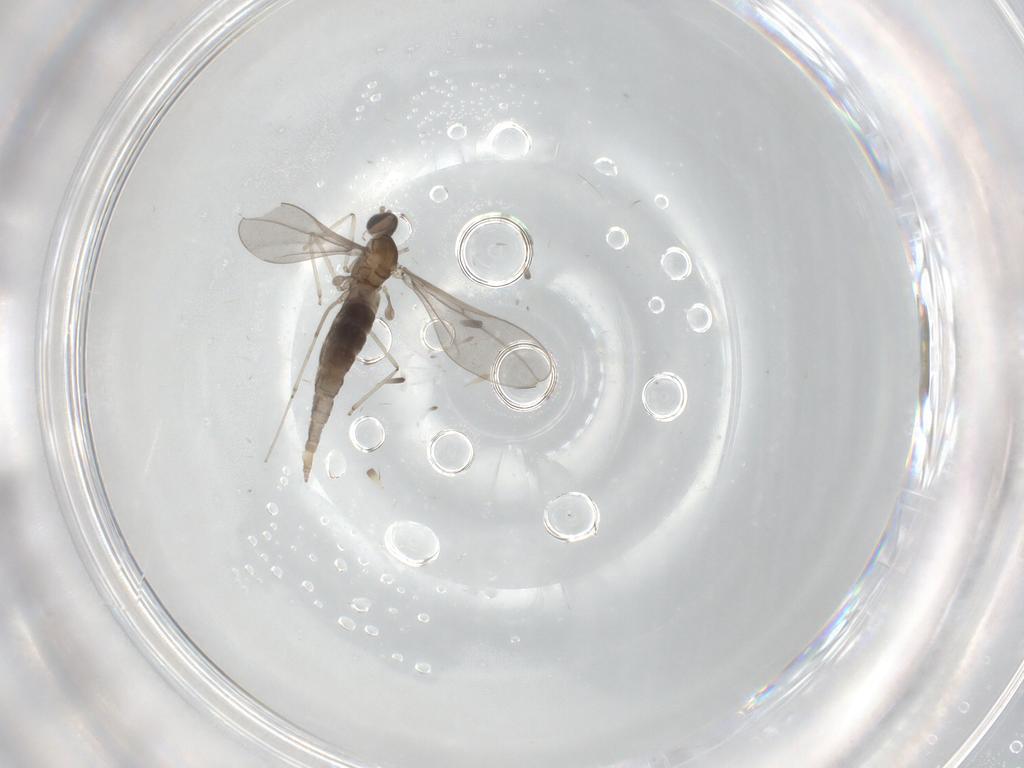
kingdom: Animalia
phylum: Arthropoda
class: Insecta
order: Diptera
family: Cecidomyiidae
